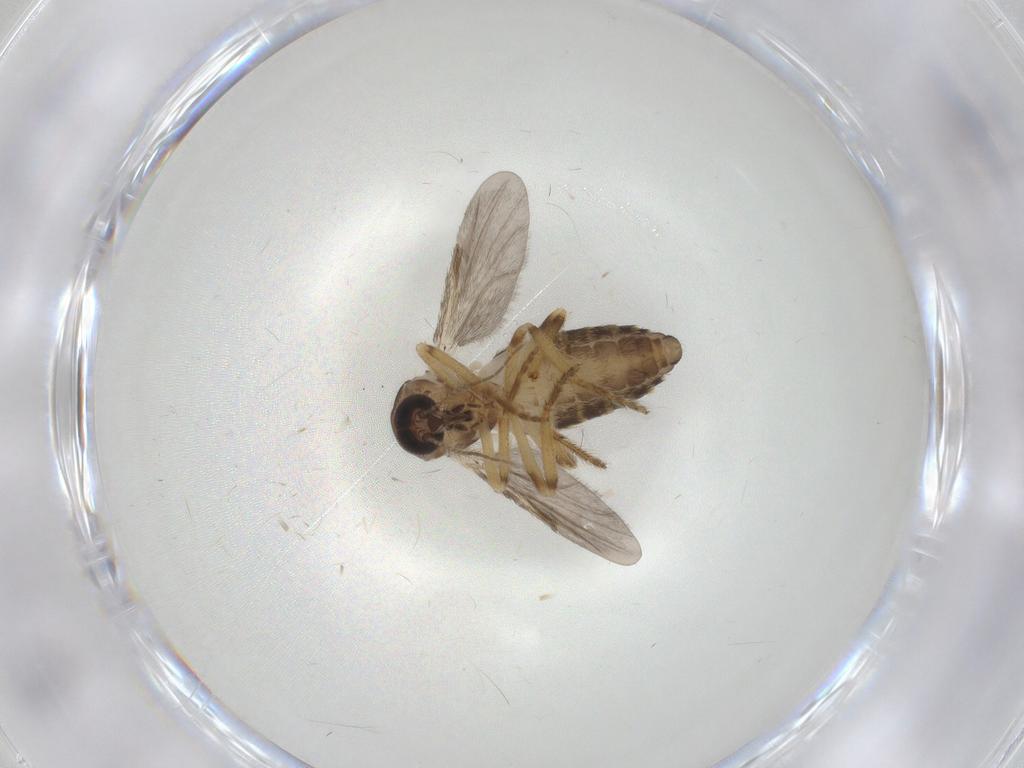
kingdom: Animalia
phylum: Arthropoda
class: Insecta
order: Diptera
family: Ceratopogonidae
